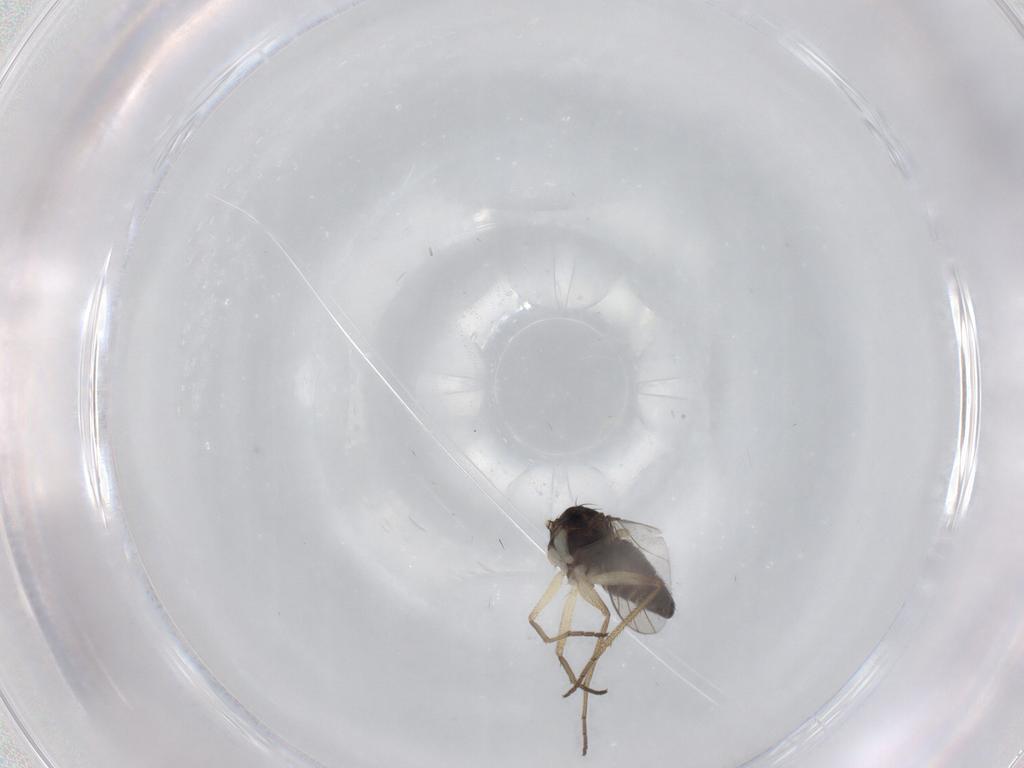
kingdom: Animalia
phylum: Arthropoda
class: Insecta
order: Diptera
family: Dolichopodidae
